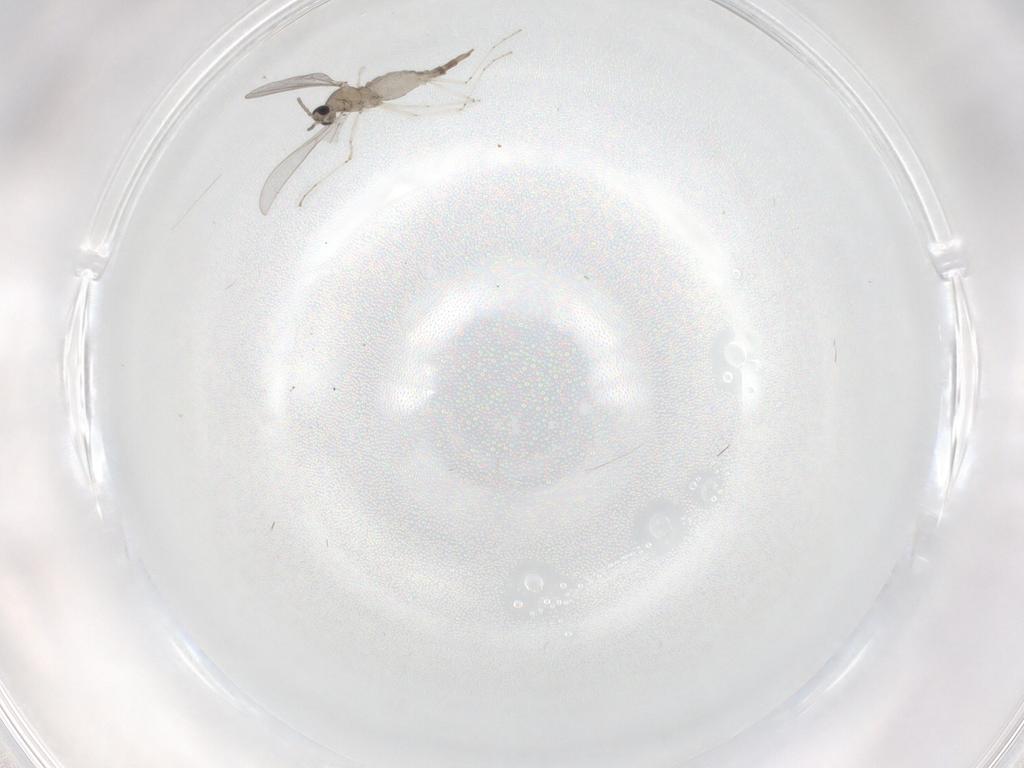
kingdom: Animalia
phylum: Arthropoda
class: Insecta
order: Diptera
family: Cecidomyiidae
